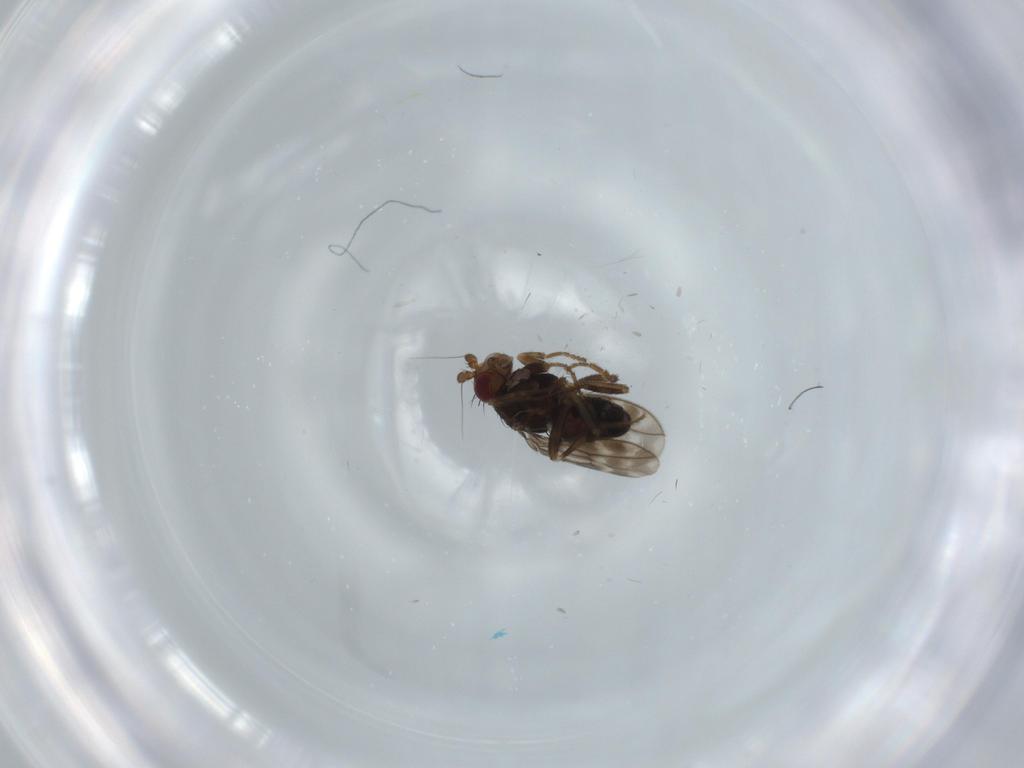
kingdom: Animalia
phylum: Arthropoda
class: Insecta
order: Diptera
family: Sphaeroceridae
